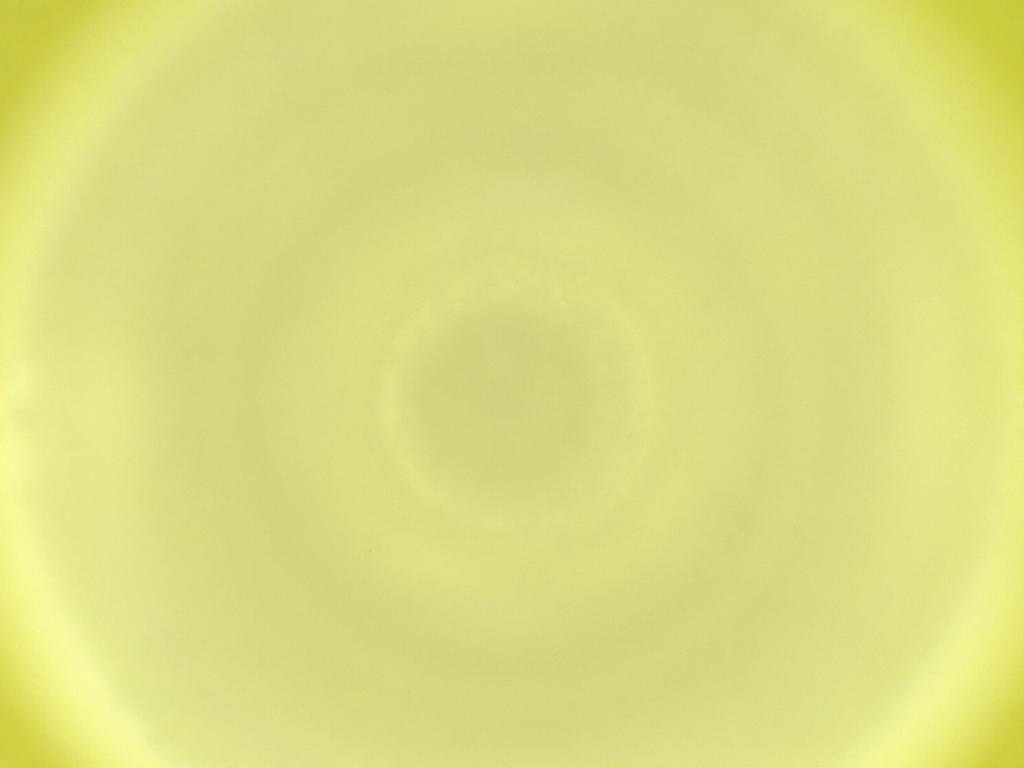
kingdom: Animalia
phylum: Arthropoda
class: Insecta
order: Diptera
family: Cecidomyiidae
